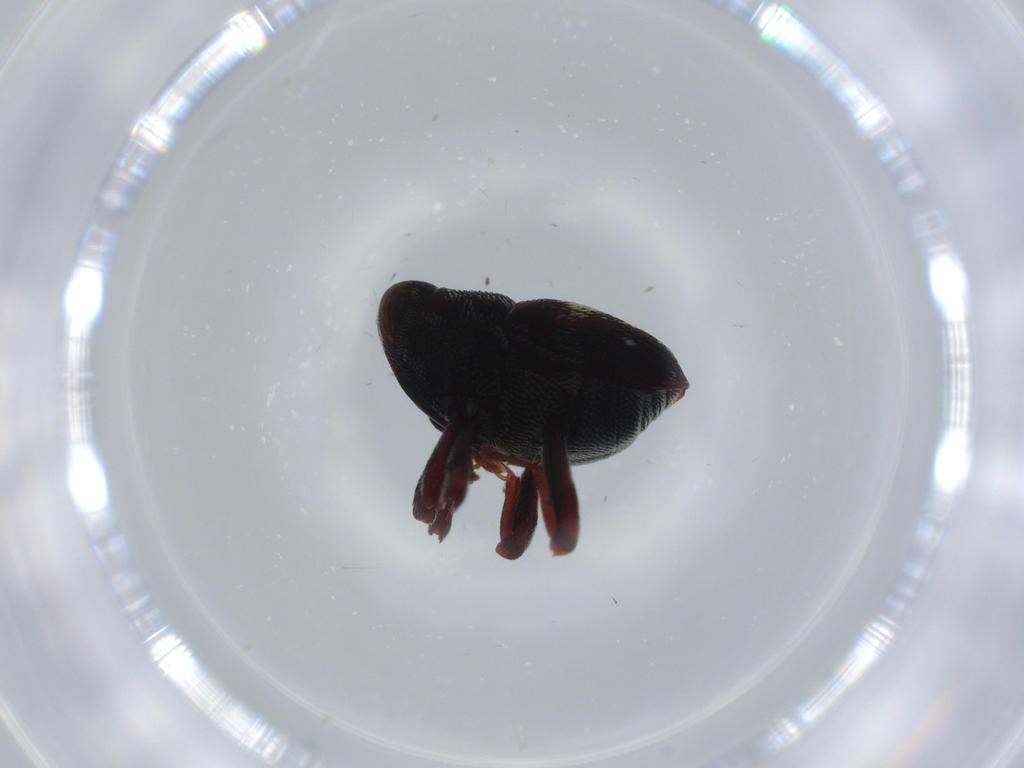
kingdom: Animalia
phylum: Arthropoda
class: Insecta
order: Coleoptera
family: Curculionidae
